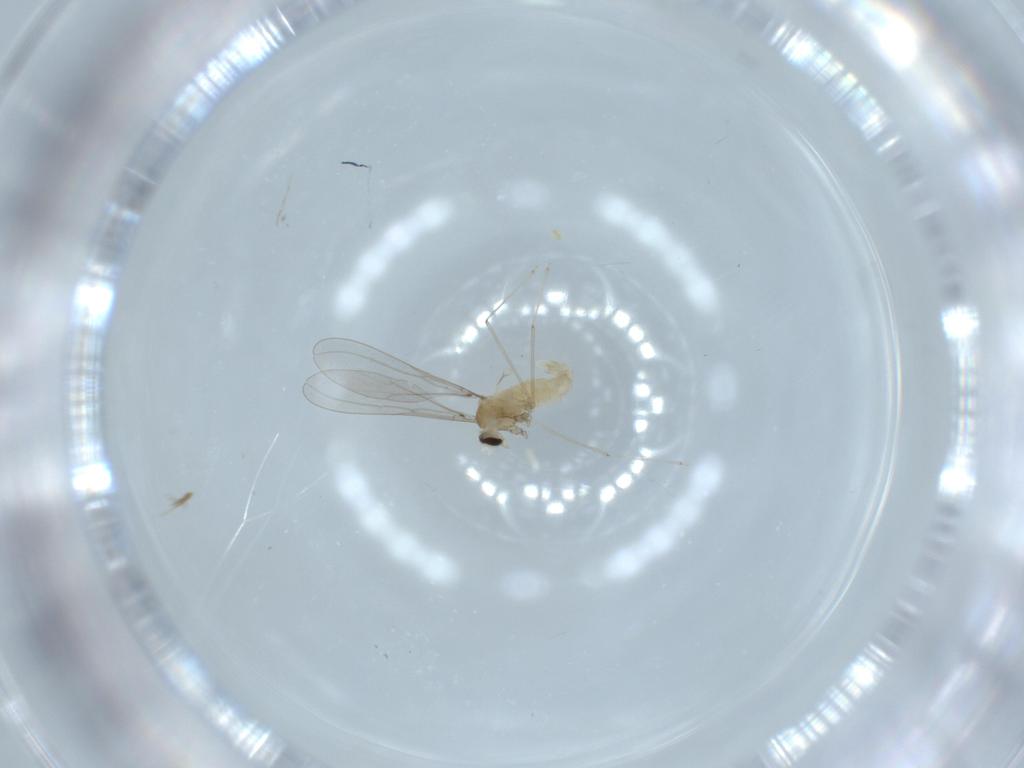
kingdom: Animalia
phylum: Arthropoda
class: Insecta
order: Diptera
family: Cecidomyiidae
